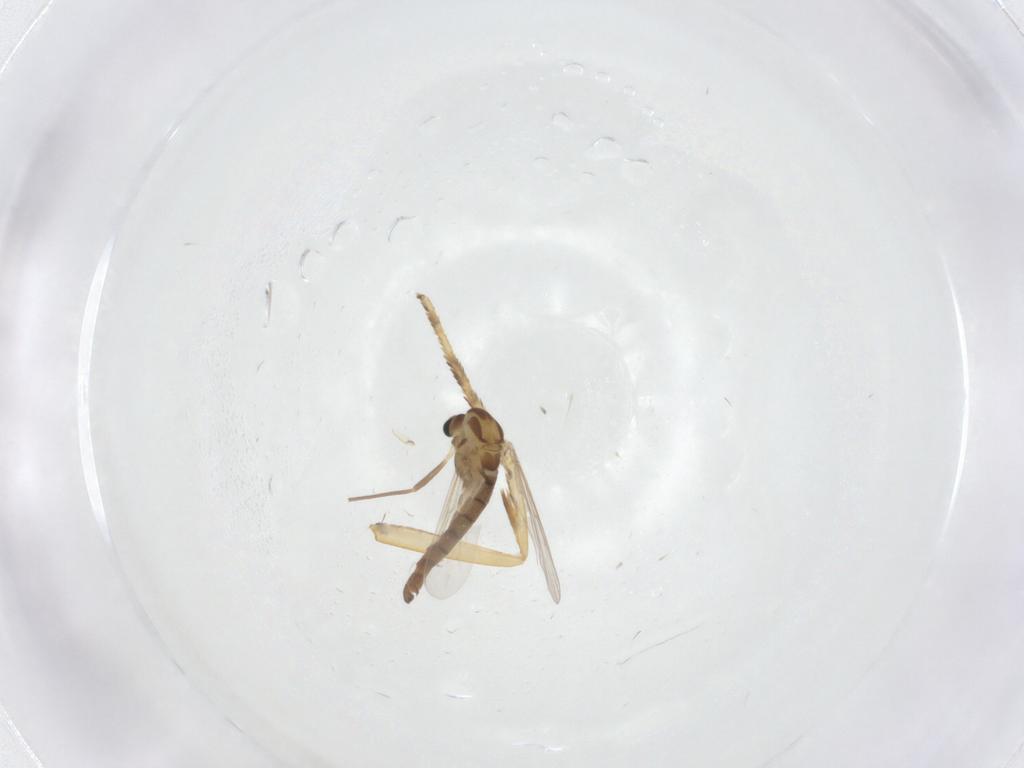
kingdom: Animalia
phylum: Arthropoda
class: Insecta
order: Diptera
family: Chironomidae
